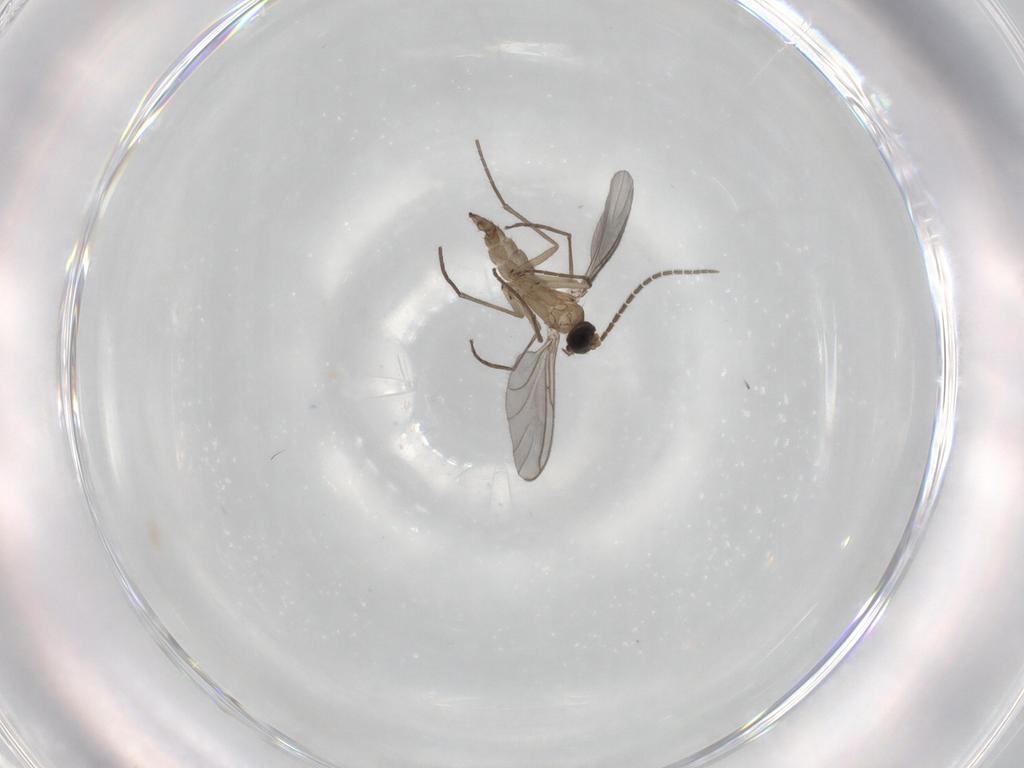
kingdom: Animalia
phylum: Arthropoda
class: Insecta
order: Diptera
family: Sciaridae
